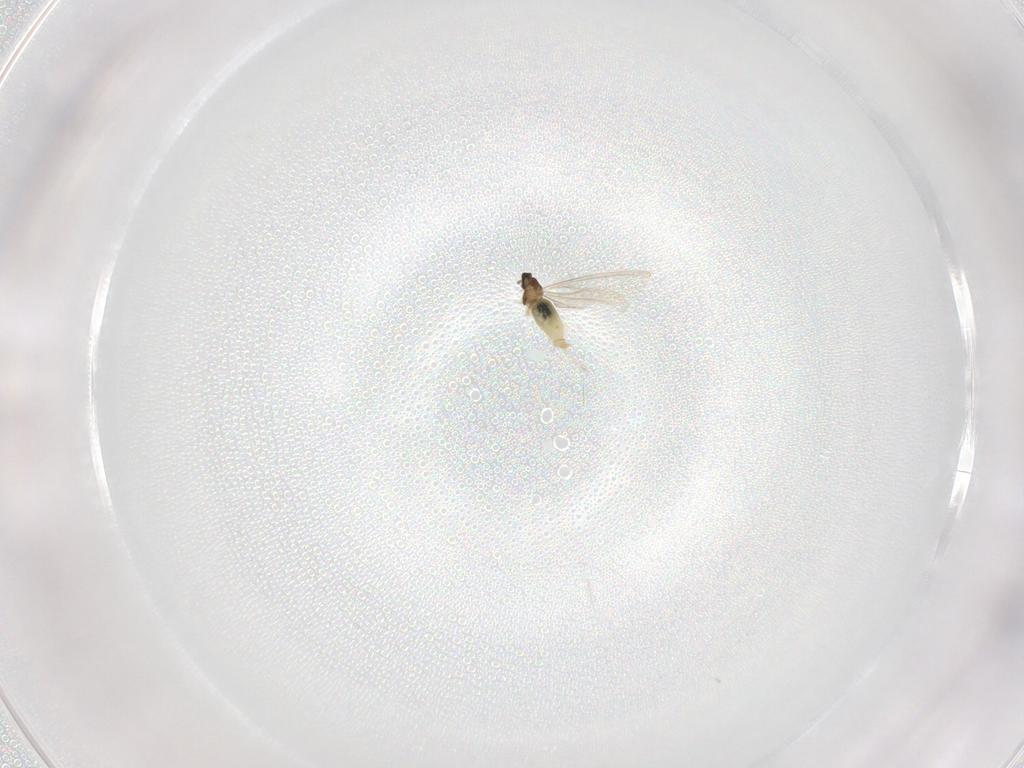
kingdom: Animalia
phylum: Arthropoda
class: Insecta
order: Diptera
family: Cecidomyiidae
